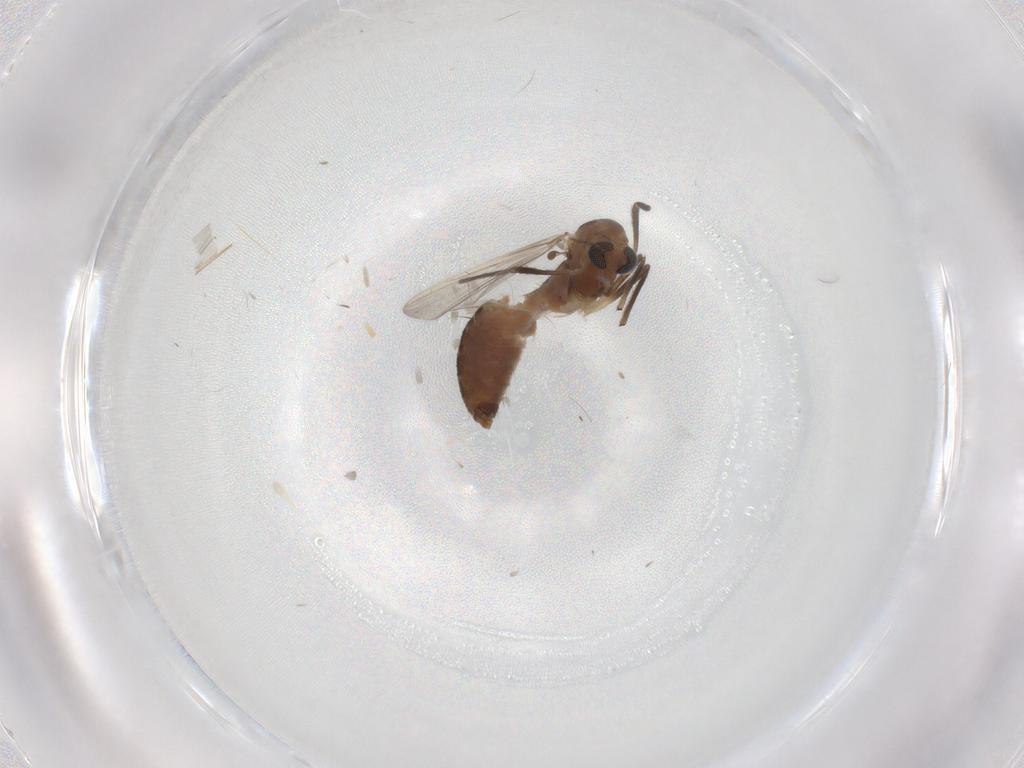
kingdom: Animalia
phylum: Arthropoda
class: Insecta
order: Diptera
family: Chironomidae
